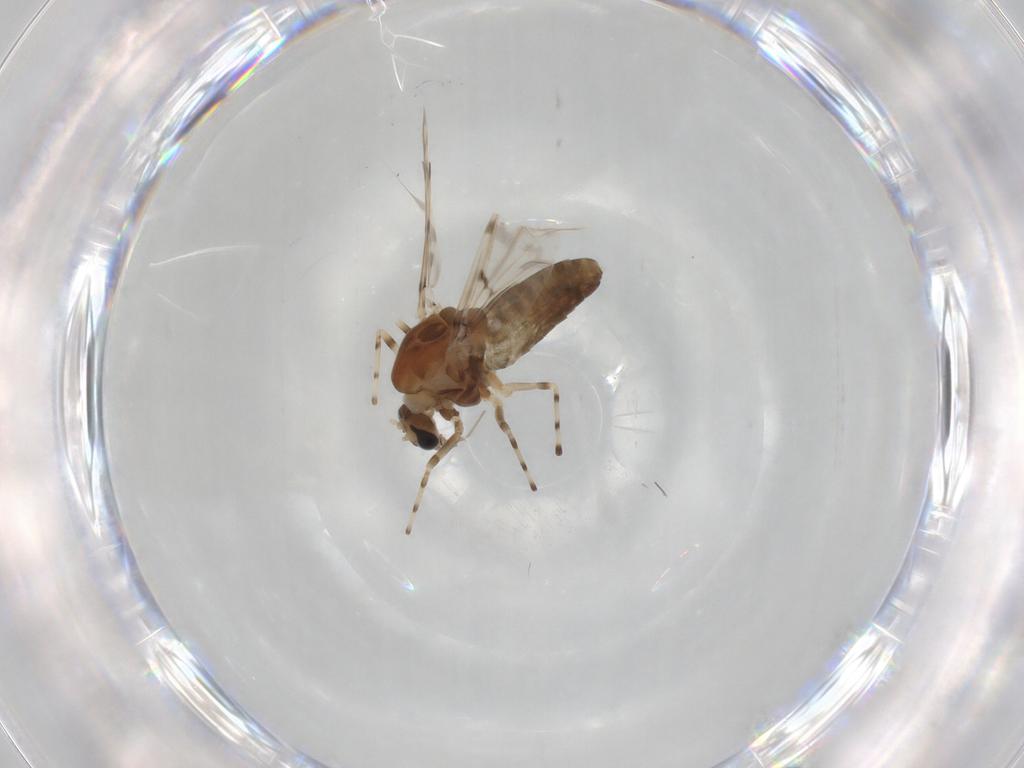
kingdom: Animalia
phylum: Arthropoda
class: Insecta
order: Diptera
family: Chironomidae
